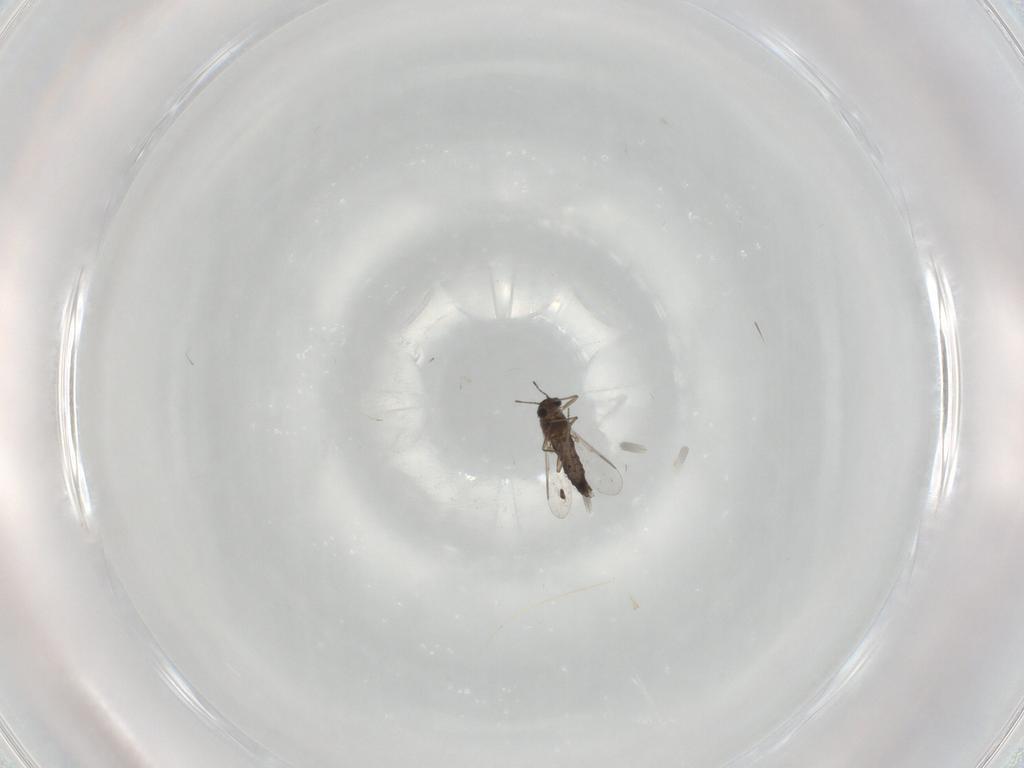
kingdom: Animalia
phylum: Arthropoda
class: Insecta
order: Diptera
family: Chironomidae
